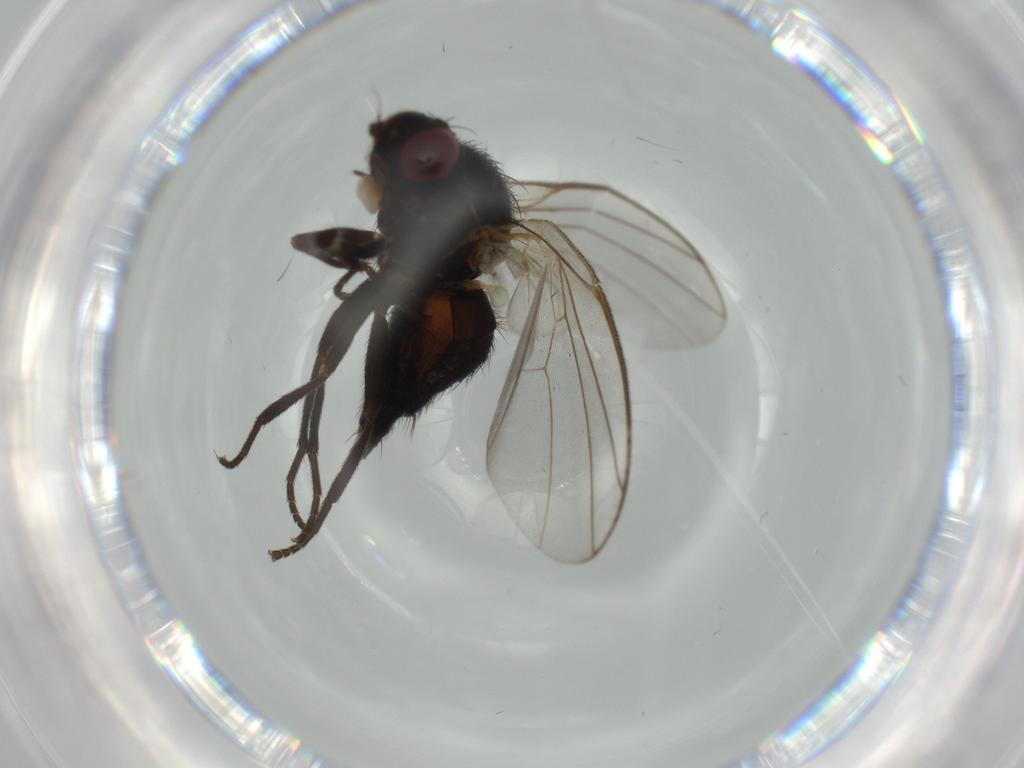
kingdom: Animalia
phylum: Arthropoda
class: Insecta
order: Diptera
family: Agromyzidae
